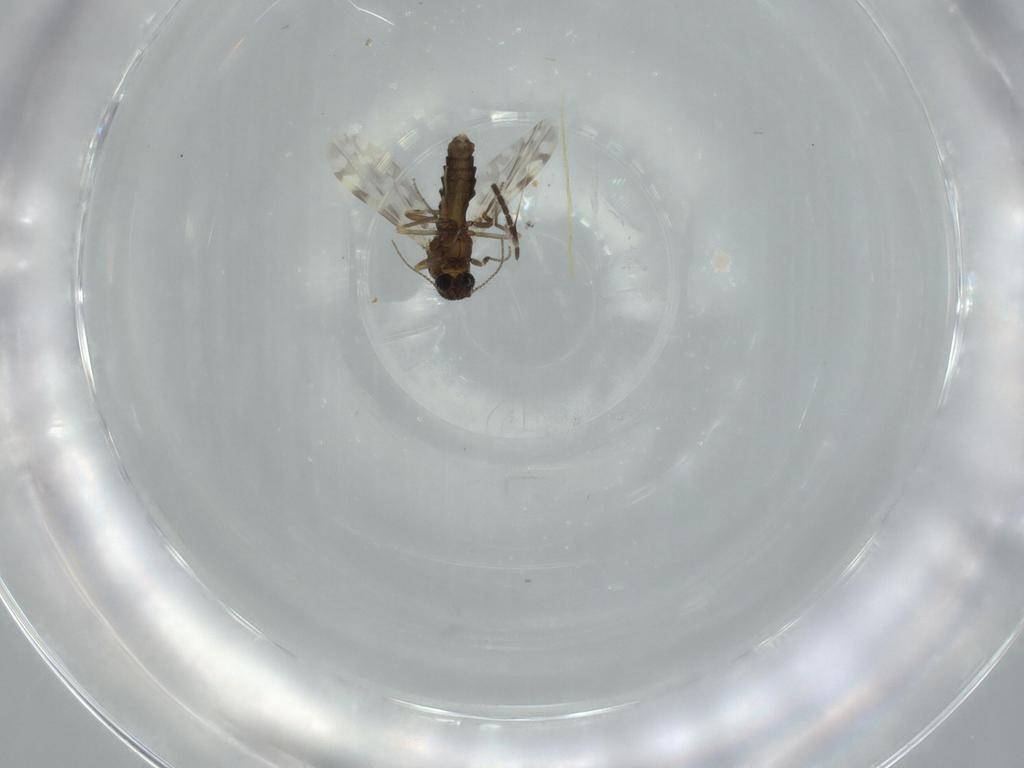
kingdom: Animalia
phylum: Arthropoda
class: Insecta
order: Diptera
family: Sciaridae
